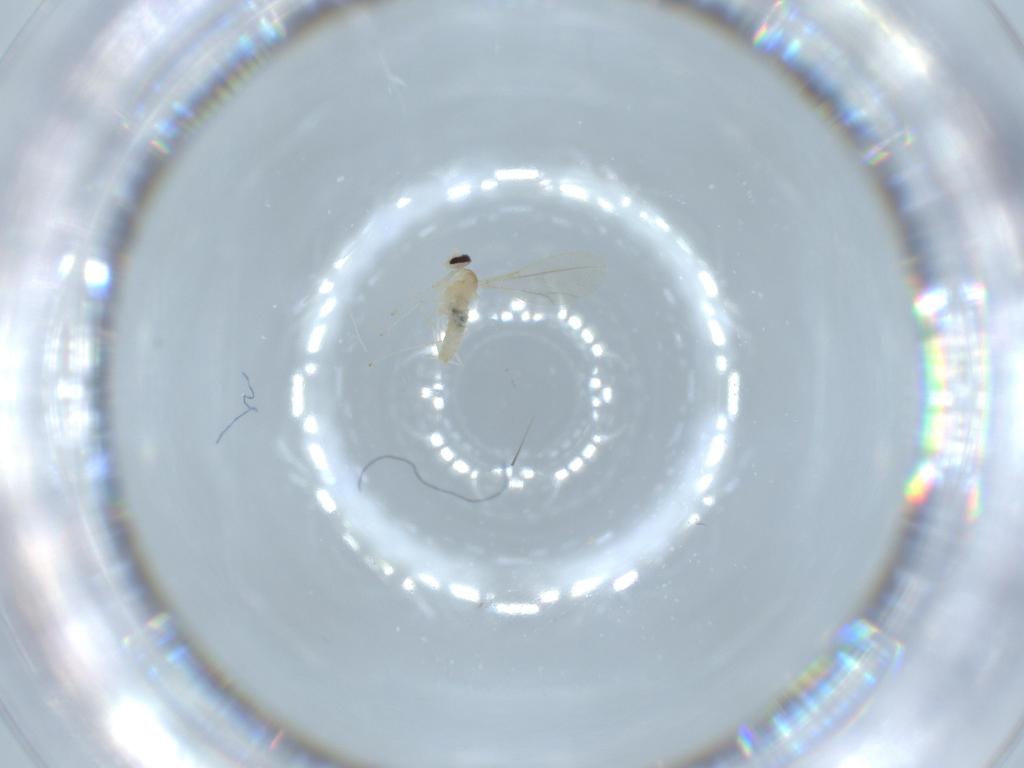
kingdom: Animalia
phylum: Arthropoda
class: Insecta
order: Diptera
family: Cecidomyiidae
